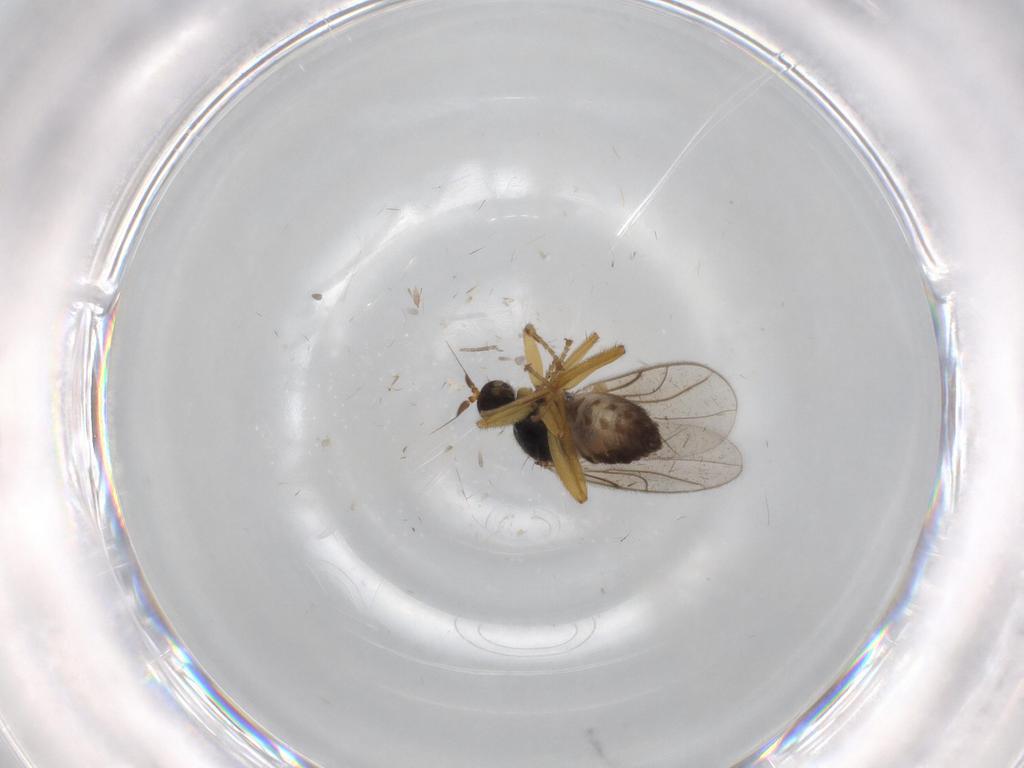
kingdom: Animalia
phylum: Arthropoda
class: Insecta
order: Diptera
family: Hybotidae
